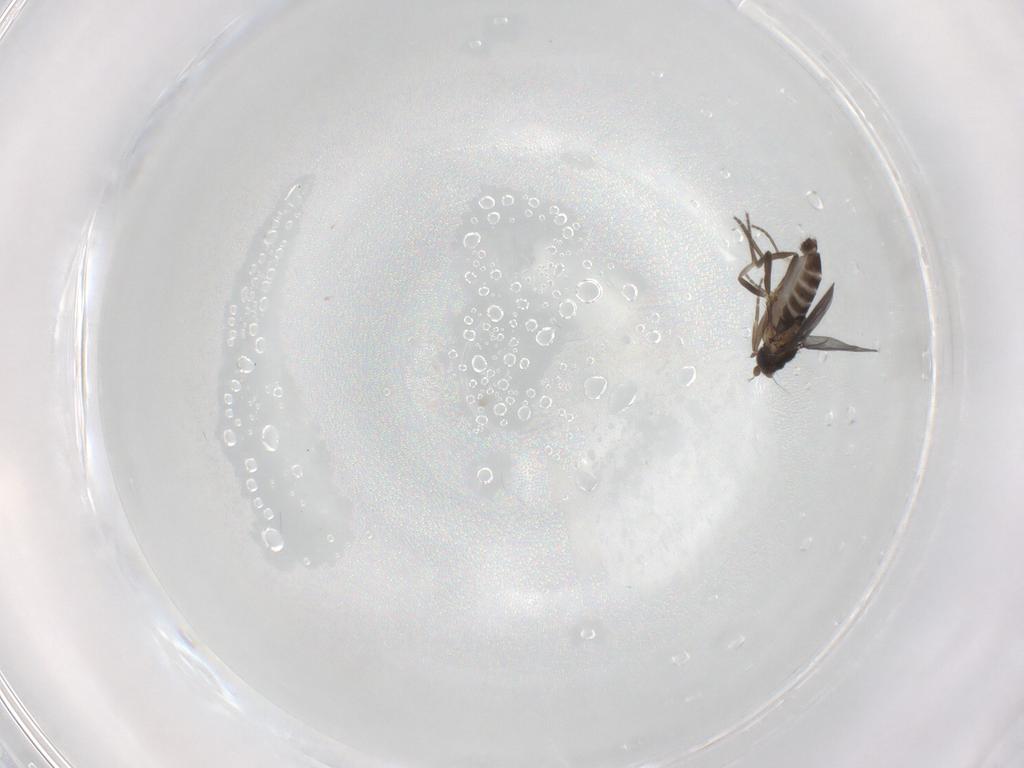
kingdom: Animalia
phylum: Arthropoda
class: Insecta
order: Diptera
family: Phoridae
